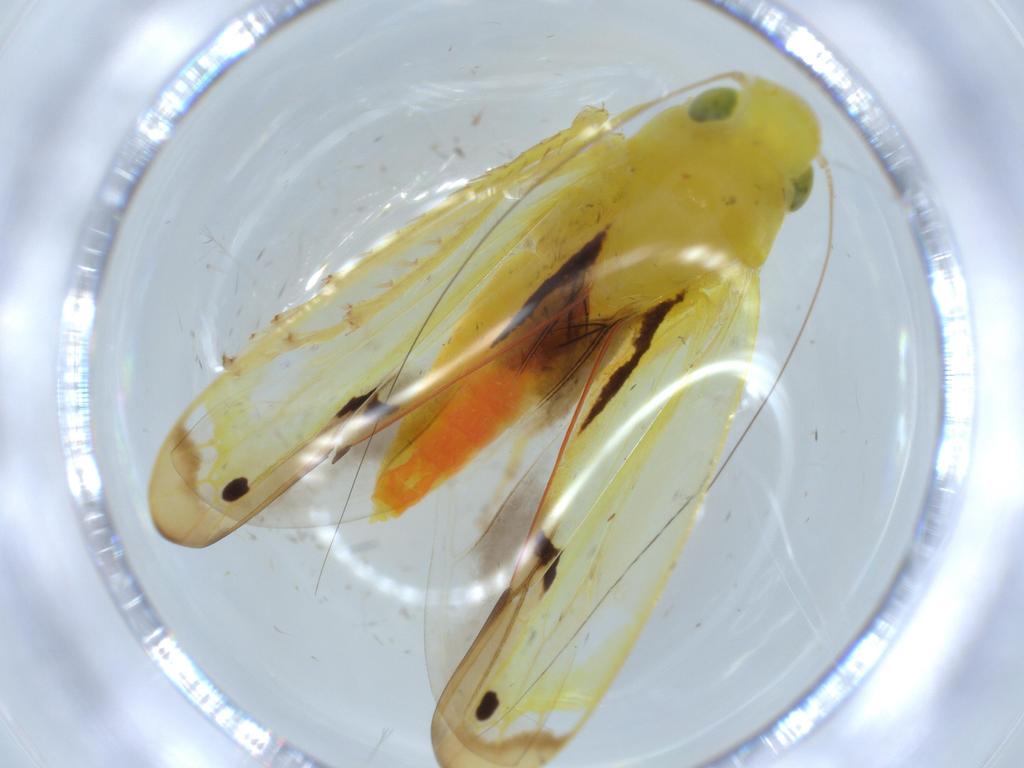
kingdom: Animalia
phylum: Arthropoda
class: Insecta
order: Hemiptera
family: Cicadellidae
